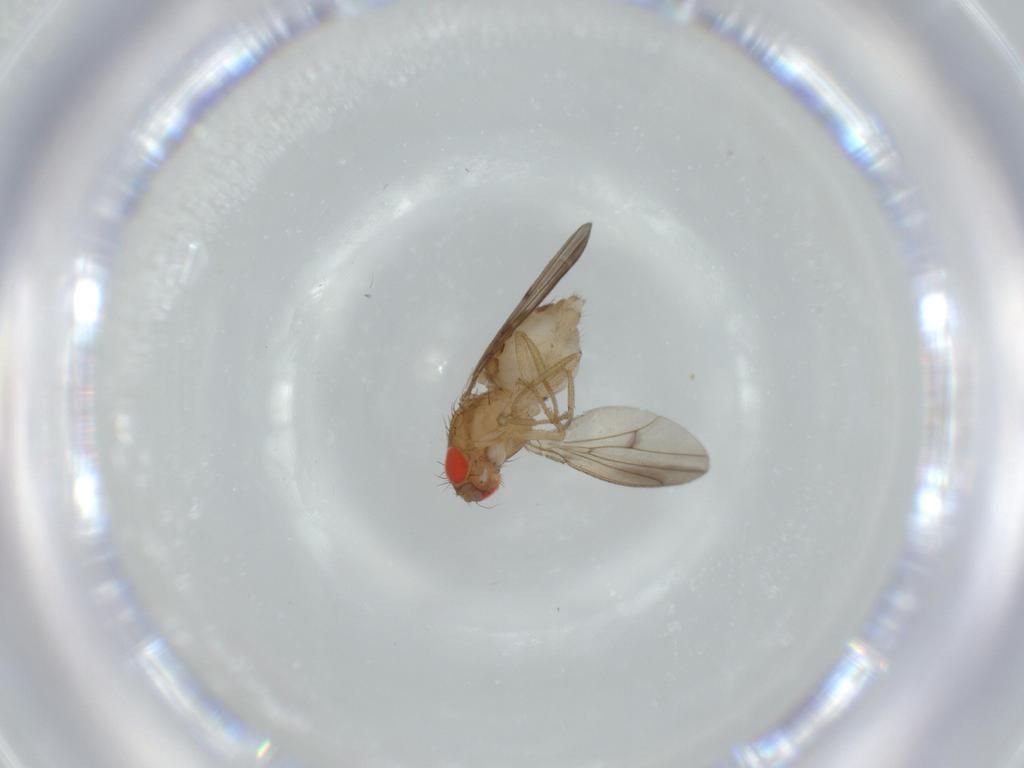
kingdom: Animalia
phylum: Arthropoda
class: Insecta
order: Diptera
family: Drosophilidae
